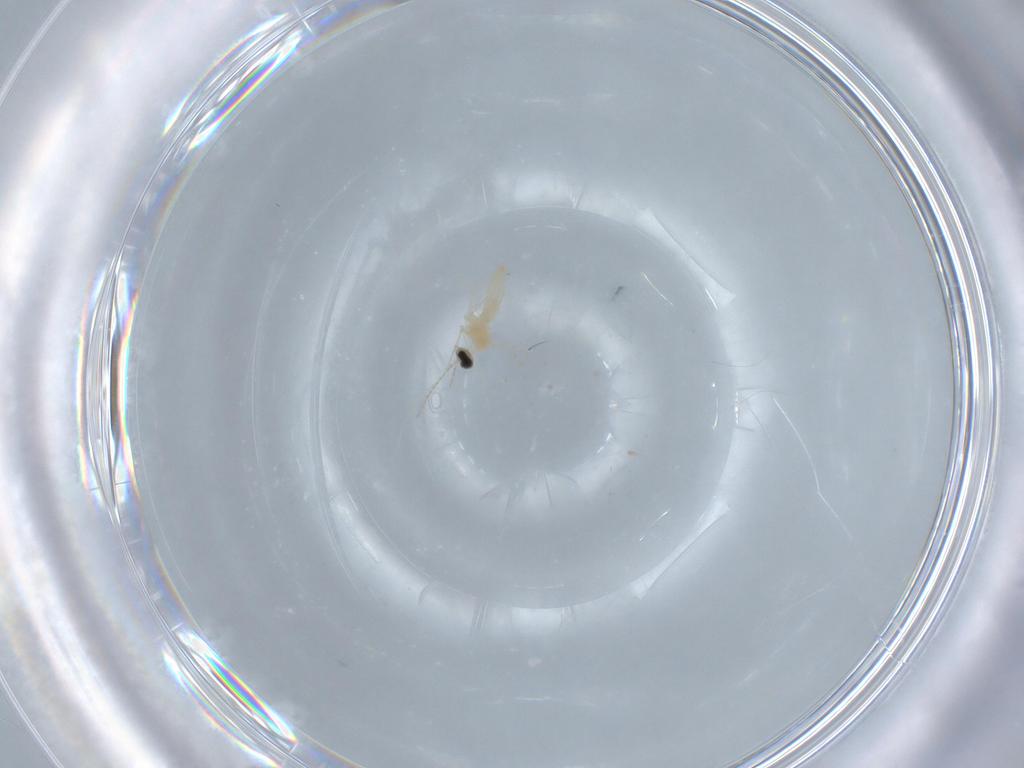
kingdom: Animalia
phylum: Arthropoda
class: Insecta
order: Diptera
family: Cecidomyiidae
